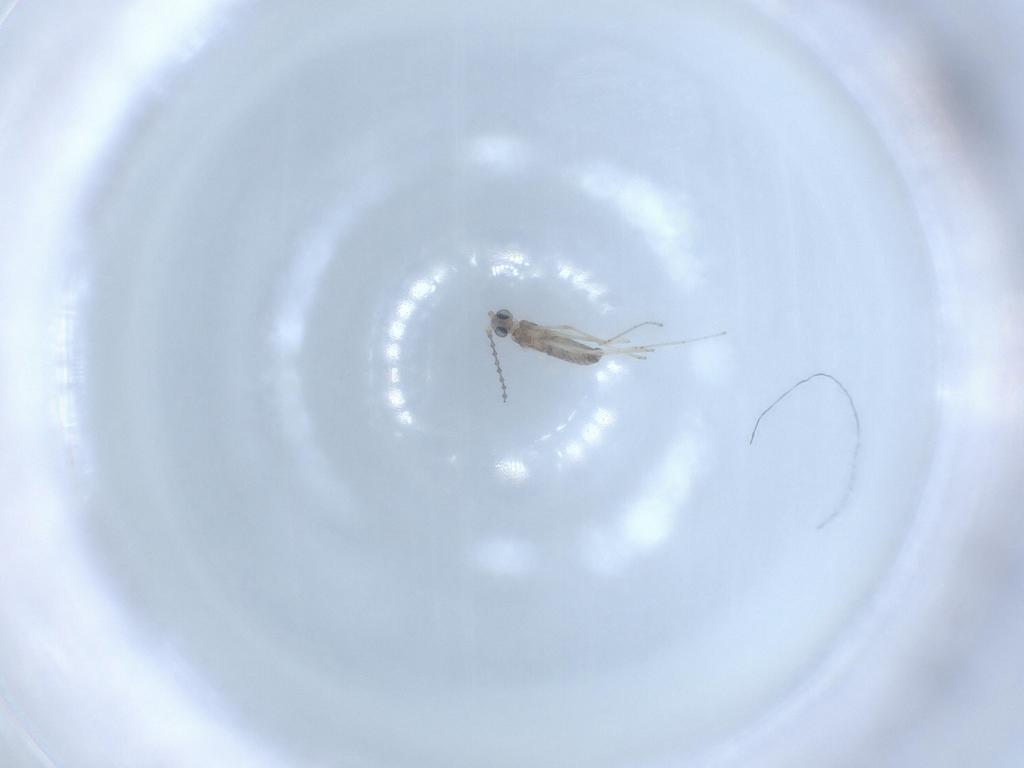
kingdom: Animalia
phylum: Arthropoda
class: Insecta
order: Diptera
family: Cecidomyiidae
